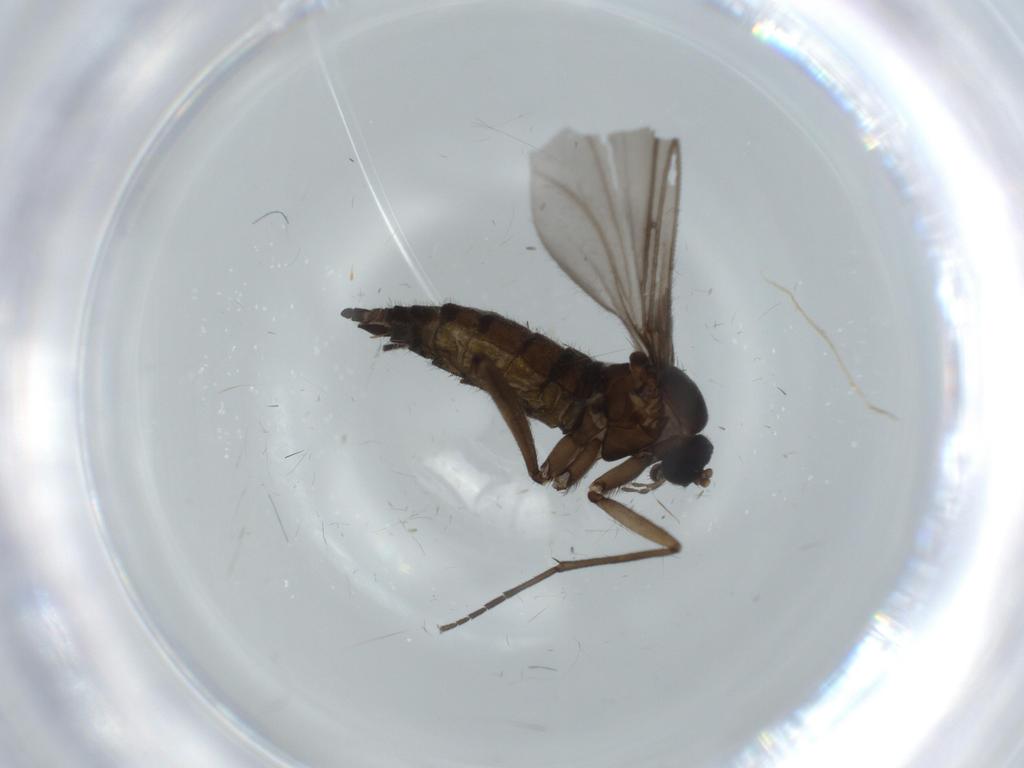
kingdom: Animalia
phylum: Arthropoda
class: Insecta
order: Diptera
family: Sciaridae
